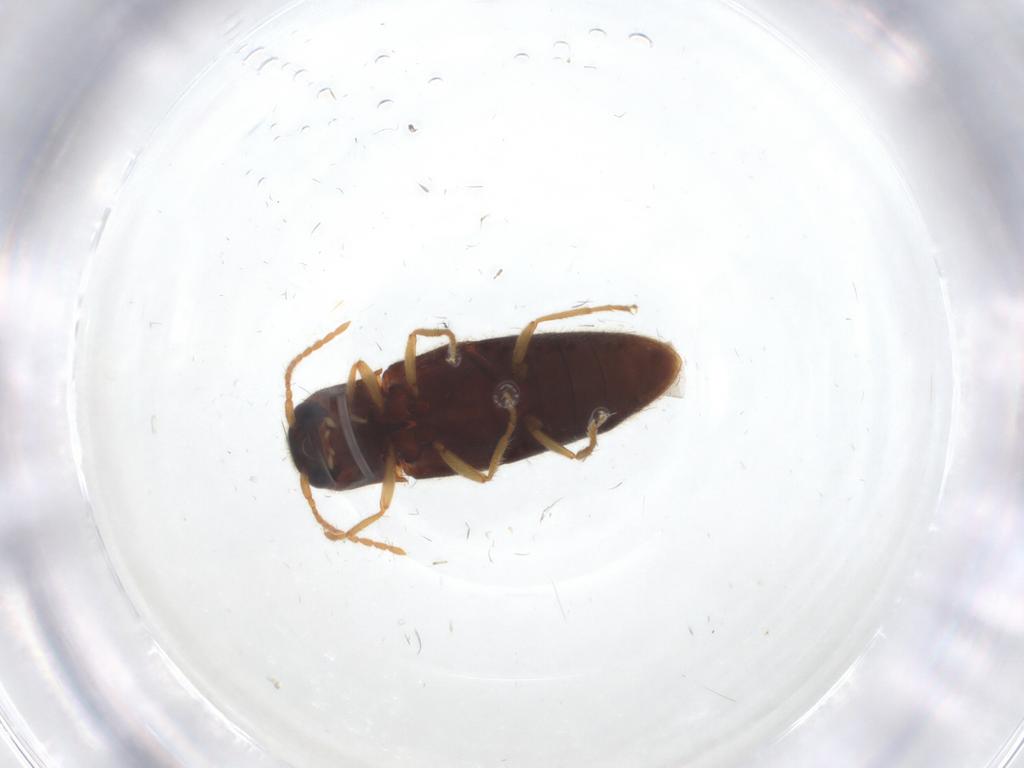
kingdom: Animalia
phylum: Arthropoda
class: Insecta
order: Coleoptera
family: Elateridae
